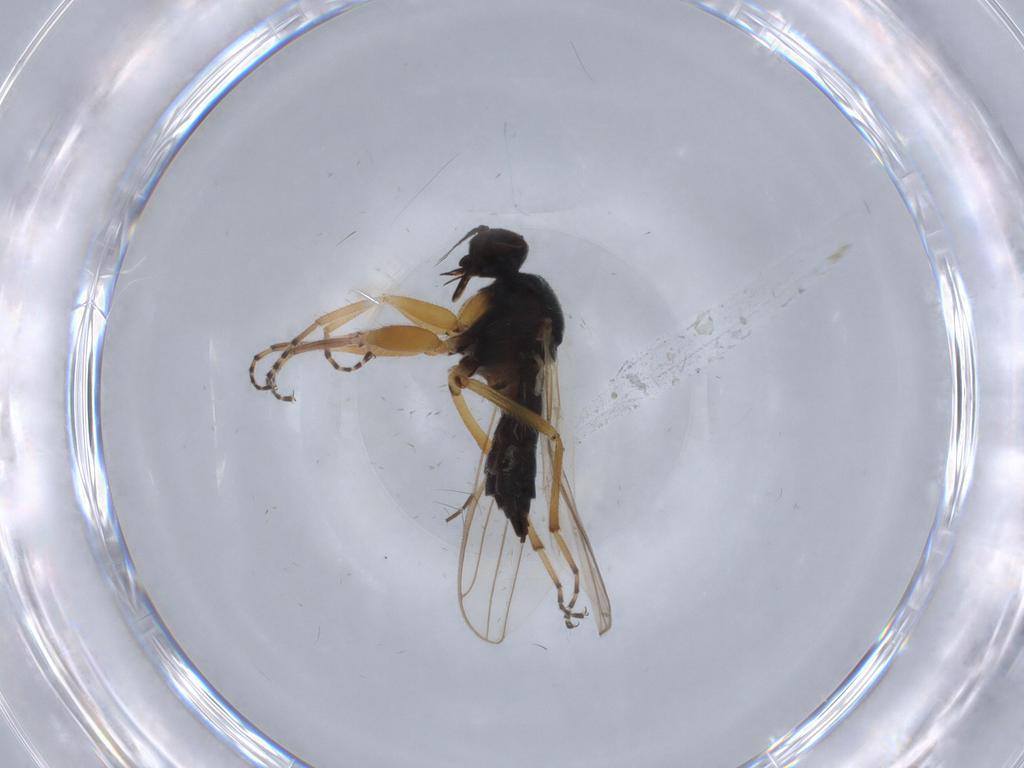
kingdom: Animalia
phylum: Arthropoda
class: Insecta
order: Diptera
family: Hybotidae
